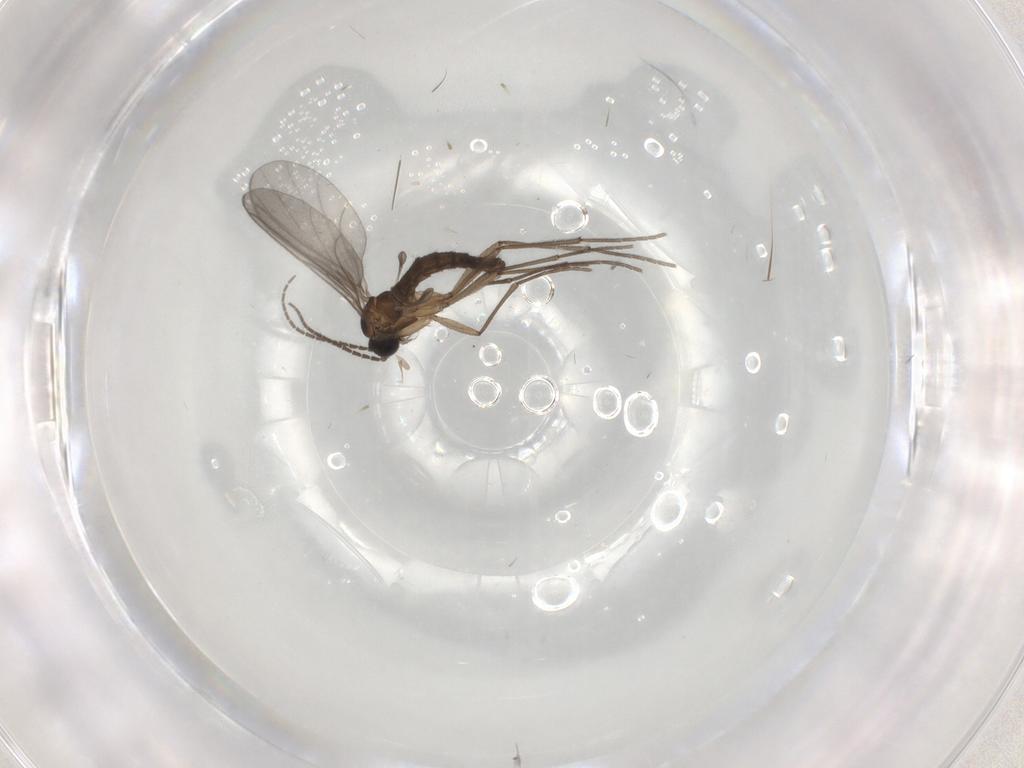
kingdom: Animalia
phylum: Arthropoda
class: Insecta
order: Diptera
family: Sciaridae
